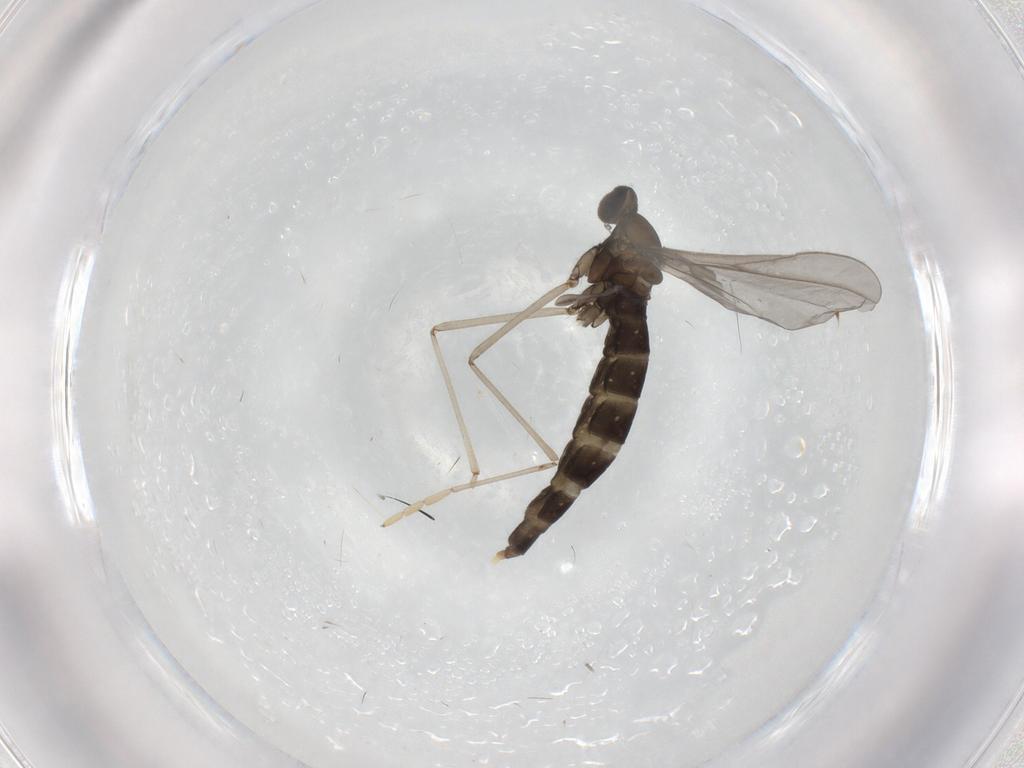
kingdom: Animalia
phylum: Arthropoda
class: Insecta
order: Diptera
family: Cecidomyiidae
